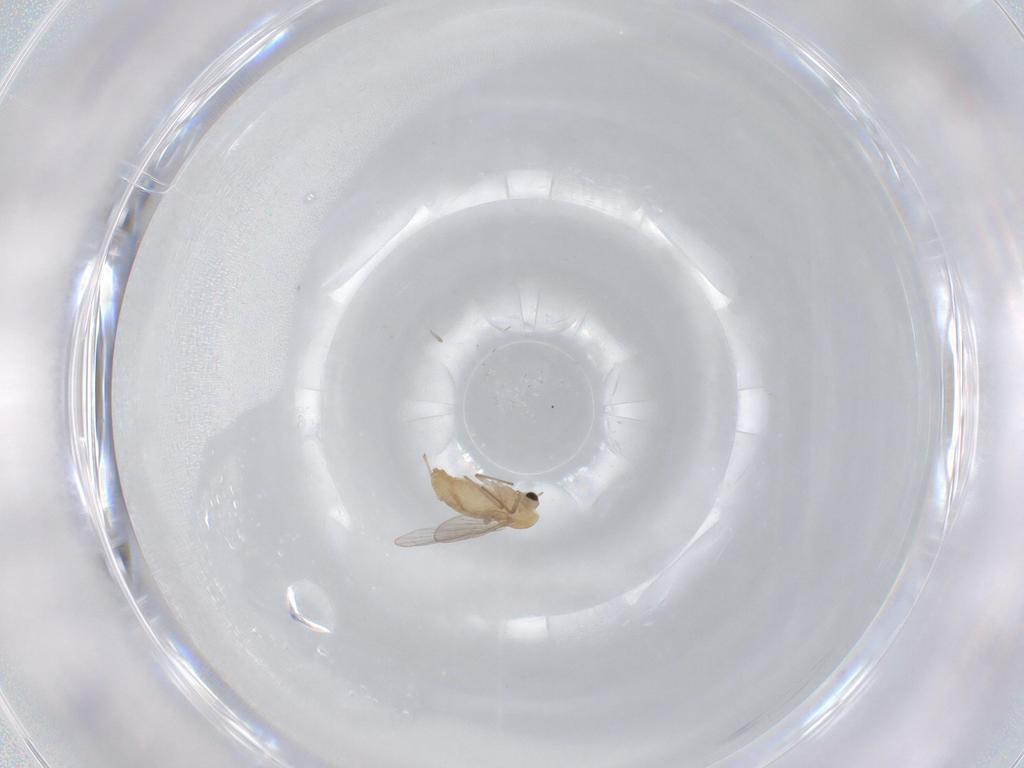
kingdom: Animalia
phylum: Arthropoda
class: Insecta
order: Diptera
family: Chironomidae
